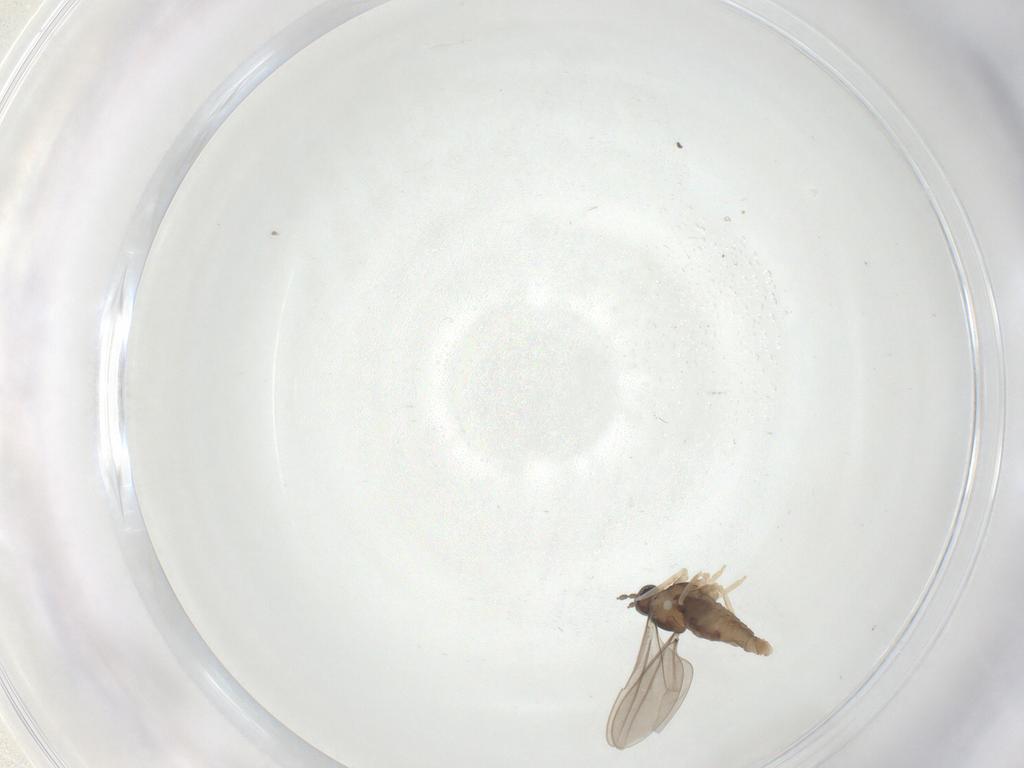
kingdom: Animalia
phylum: Arthropoda
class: Insecta
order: Diptera
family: Cecidomyiidae
